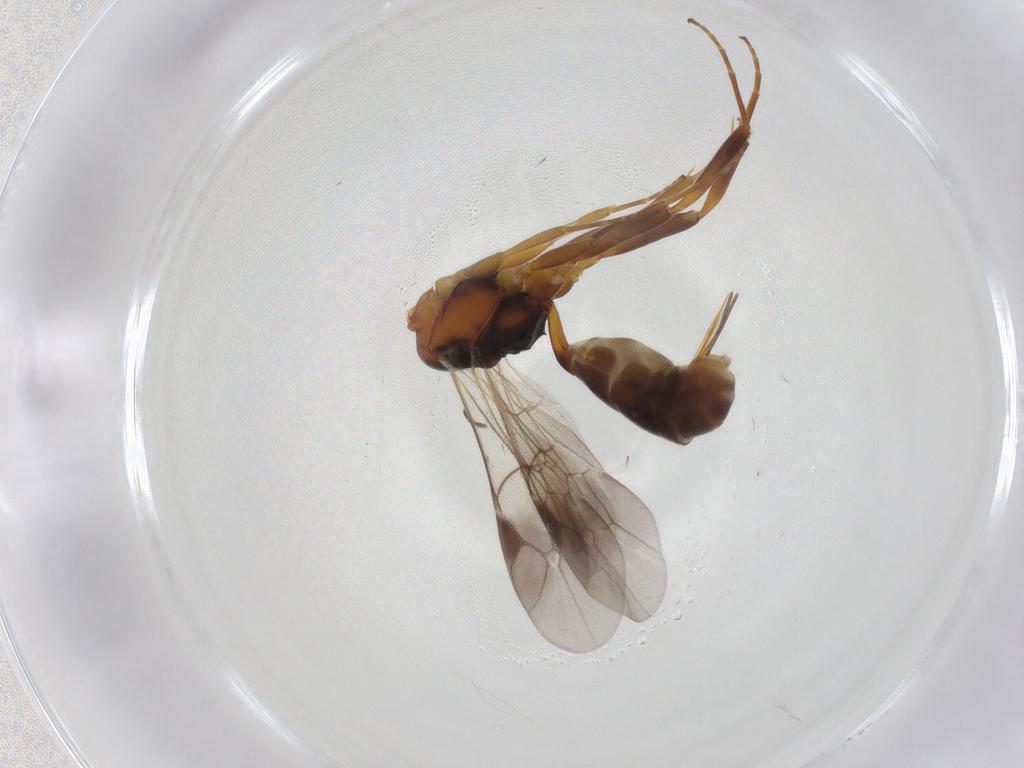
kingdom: Animalia
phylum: Arthropoda
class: Insecta
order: Hymenoptera
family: Ichneumonidae
